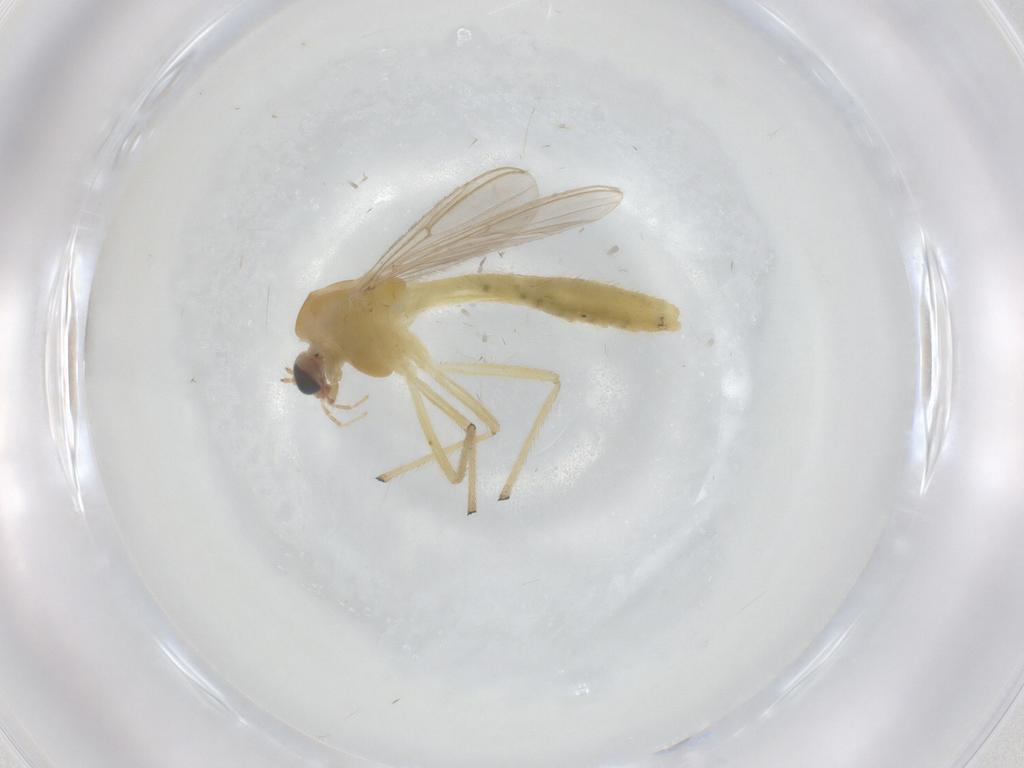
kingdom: Animalia
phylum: Arthropoda
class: Insecta
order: Diptera
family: Ceratopogonidae
